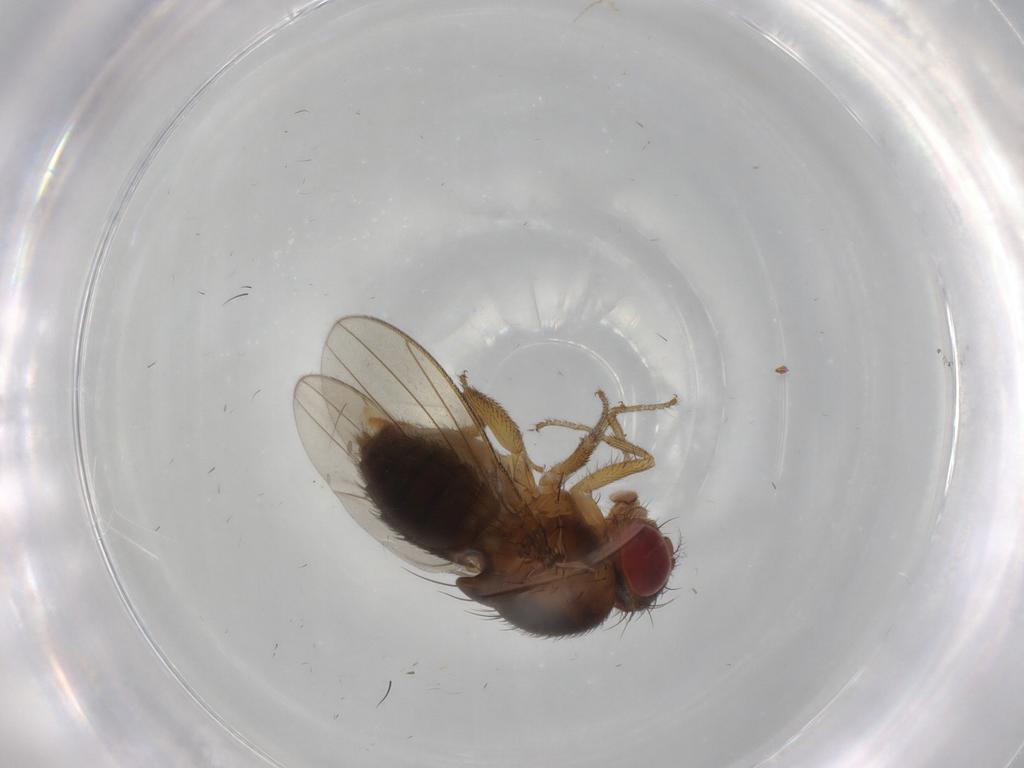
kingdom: Animalia
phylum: Arthropoda
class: Insecta
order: Diptera
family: Drosophilidae
